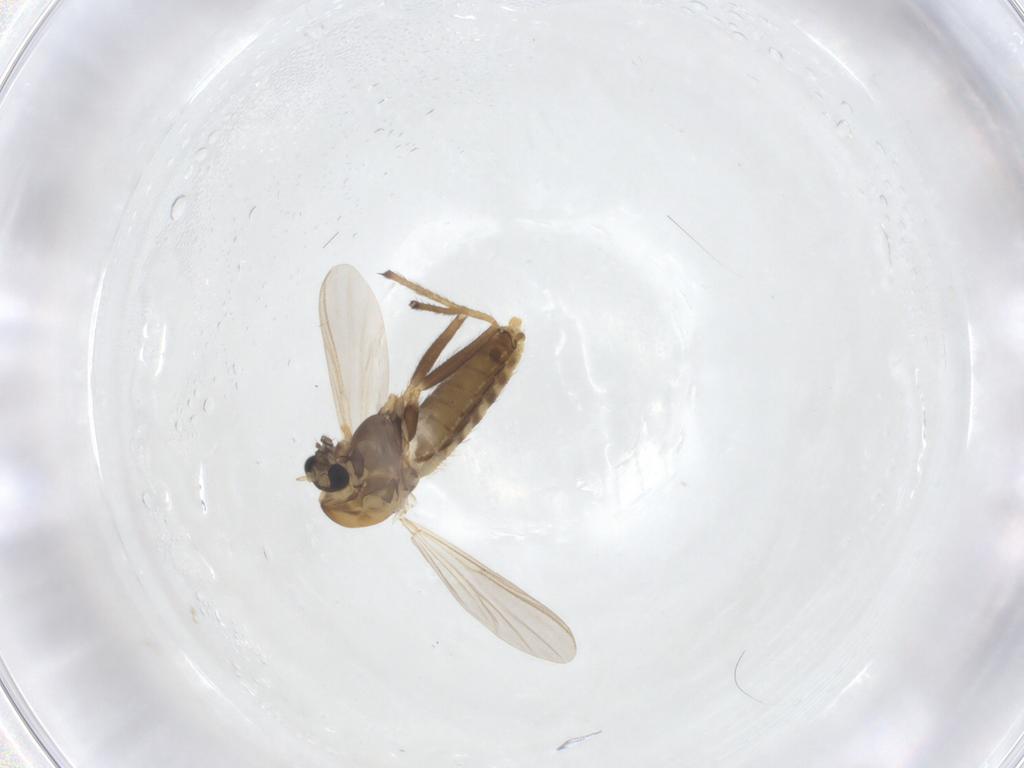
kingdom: Animalia
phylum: Arthropoda
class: Insecta
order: Diptera
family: Chironomidae
